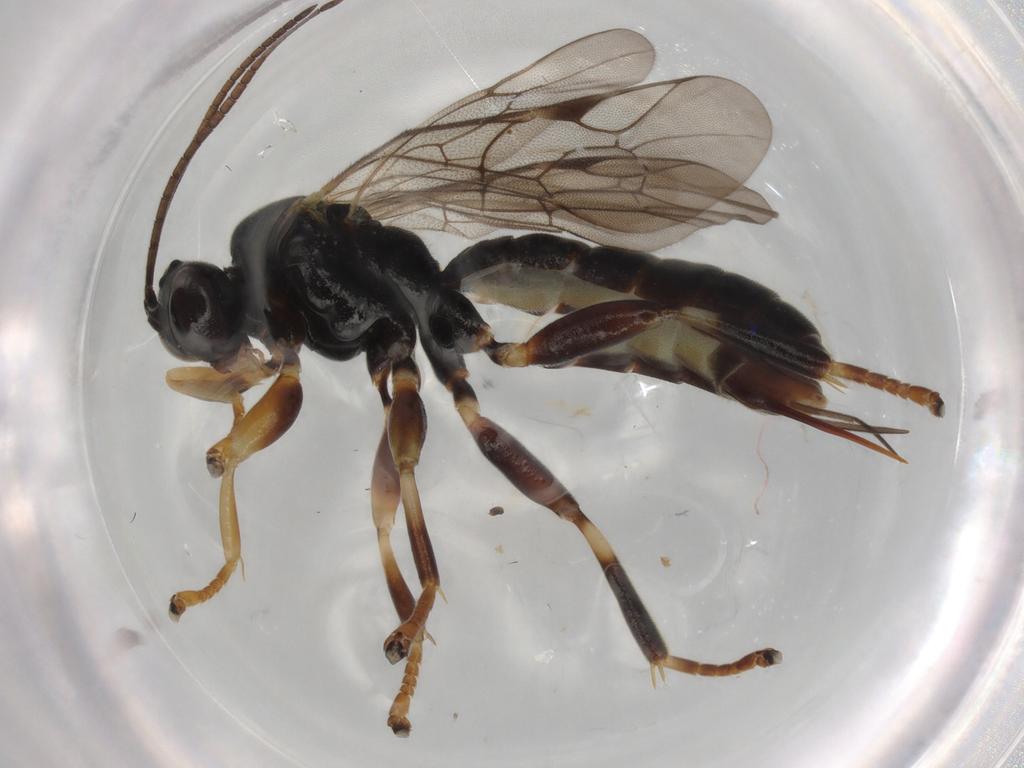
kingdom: Animalia
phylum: Arthropoda
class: Insecta
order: Hymenoptera
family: Ichneumonidae
